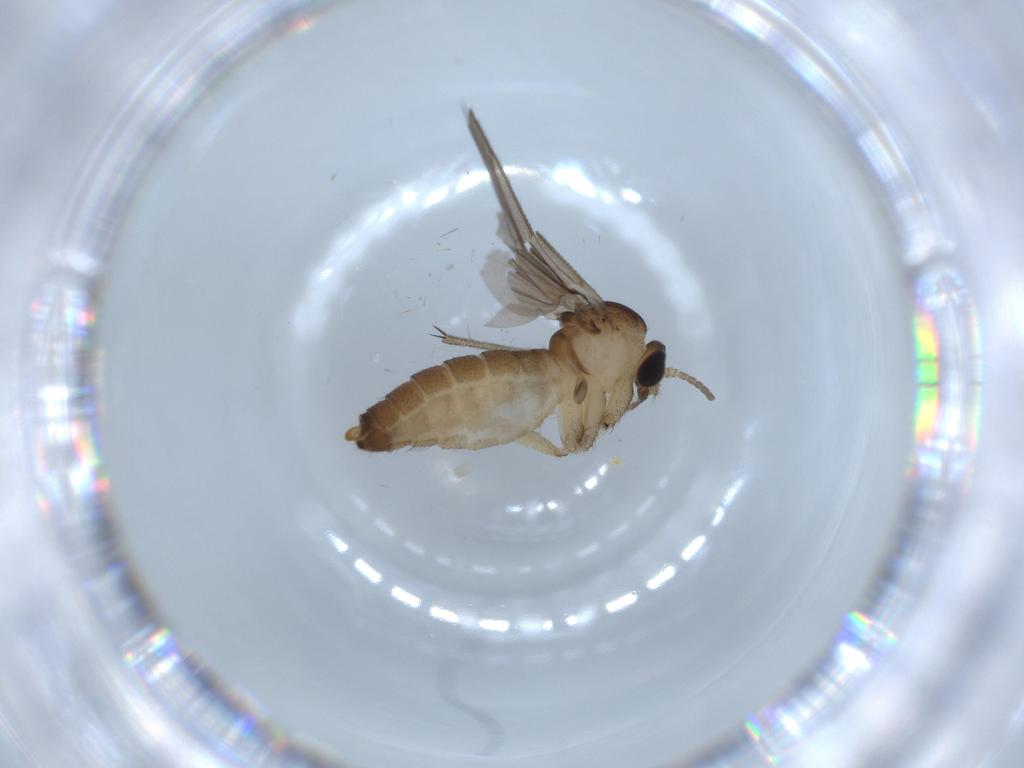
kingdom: Animalia
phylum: Arthropoda
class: Insecta
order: Diptera
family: Diadocidiidae
